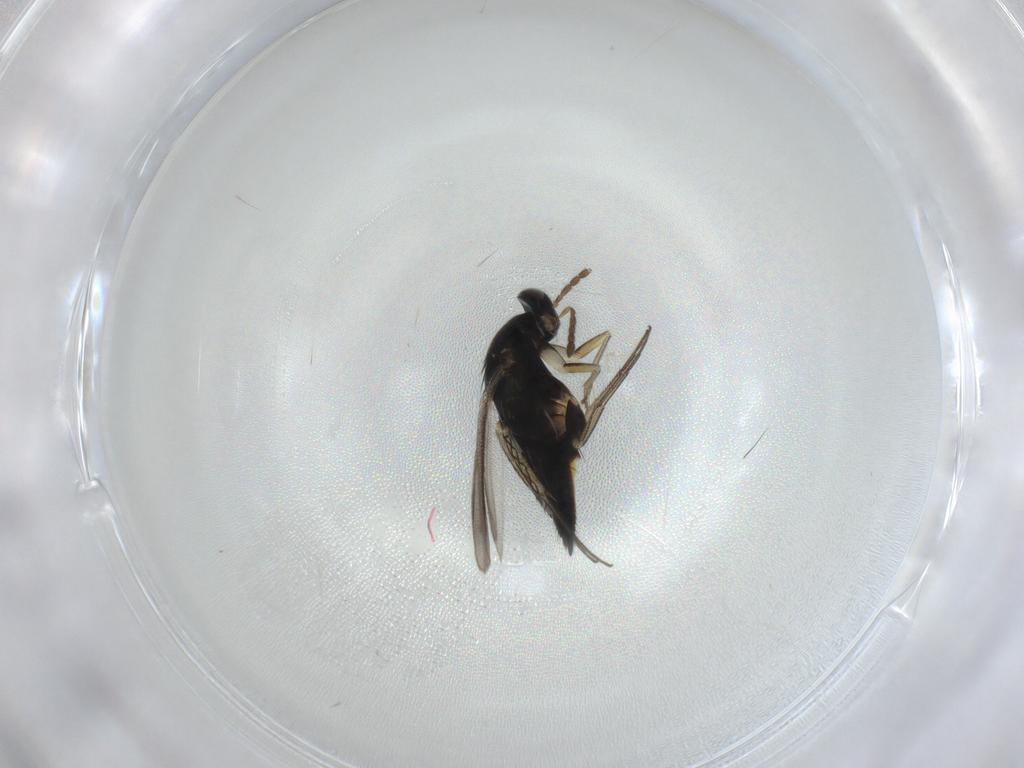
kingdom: Animalia
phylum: Arthropoda
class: Insecta
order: Hymenoptera
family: Eulophidae
